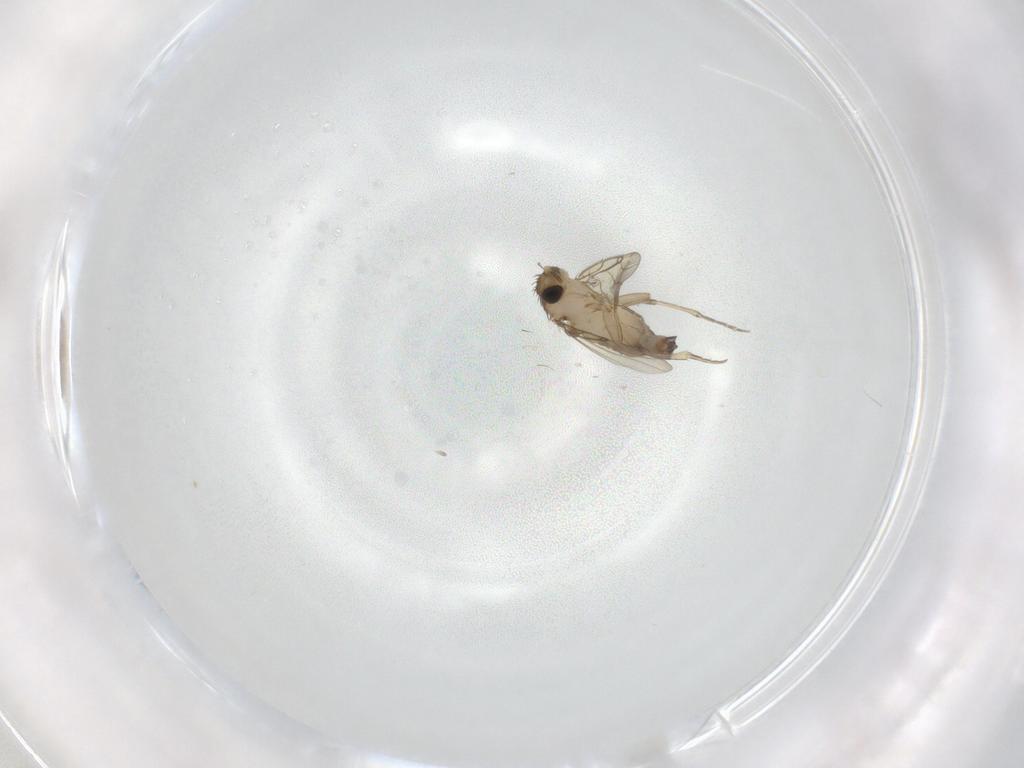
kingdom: Animalia
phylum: Arthropoda
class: Insecta
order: Diptera
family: Phoridae
